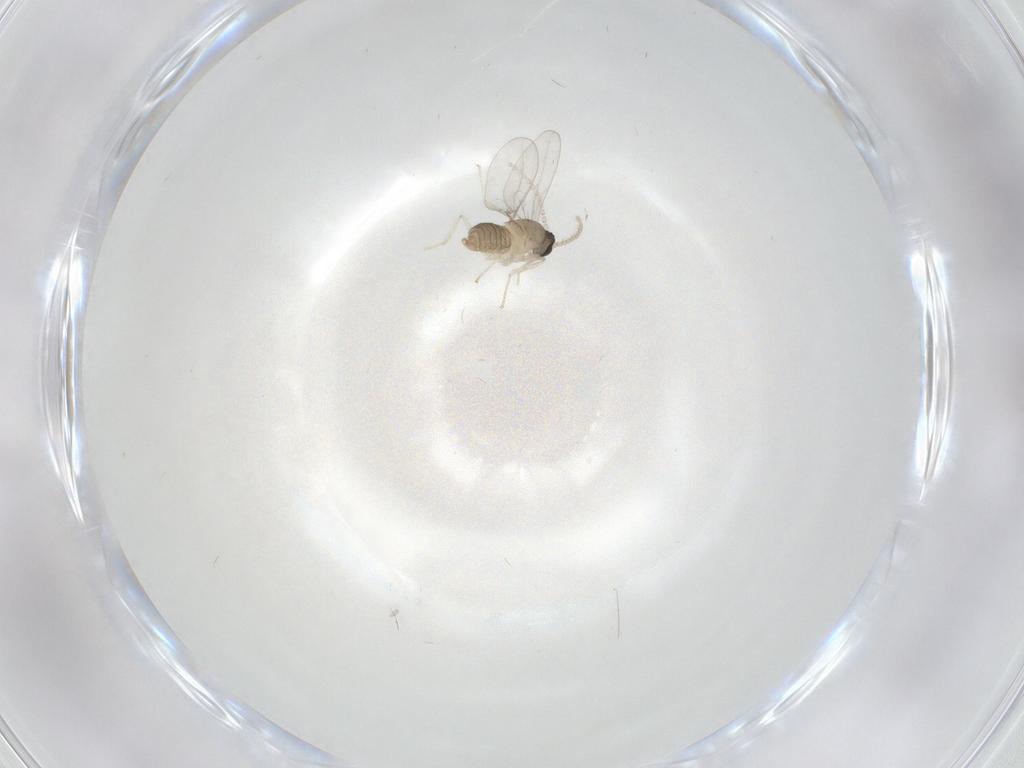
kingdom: Animalia
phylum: Arthropoda
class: Insecta
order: Diptera
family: Cecidomyiidae
